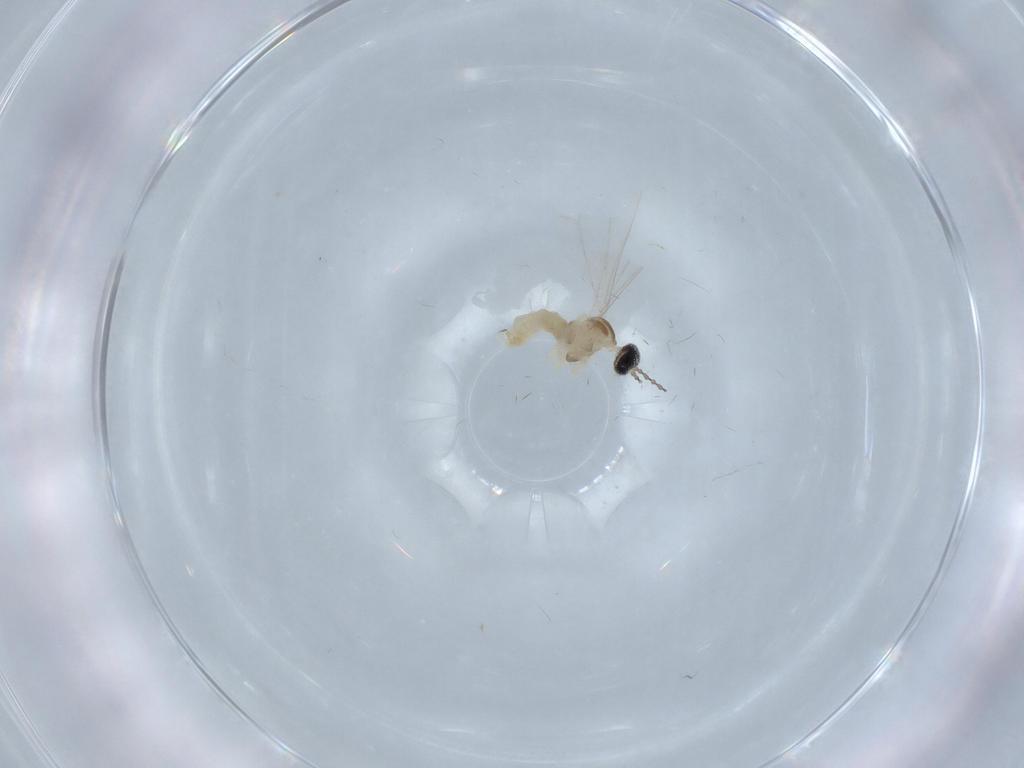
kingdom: Animalia
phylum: Arthropoda
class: Insecta
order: Diptera
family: Cecidomyiidae
